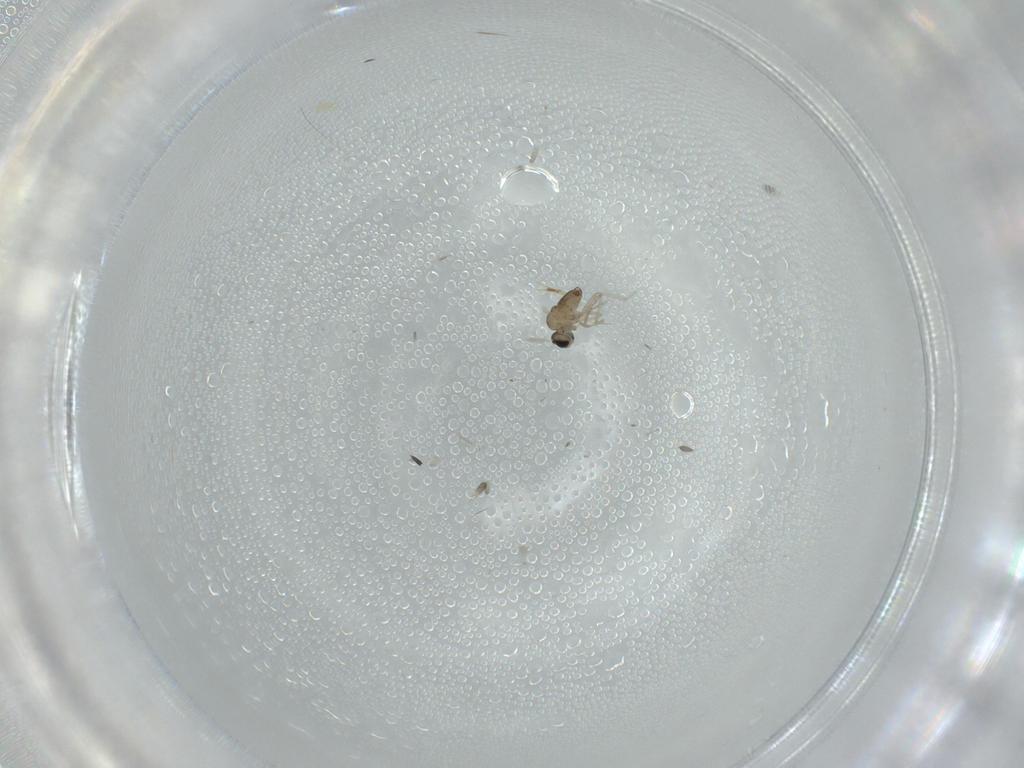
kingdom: Animalia
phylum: Arthropoda
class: Insecta
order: Diptera
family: Cecidomyiidae
